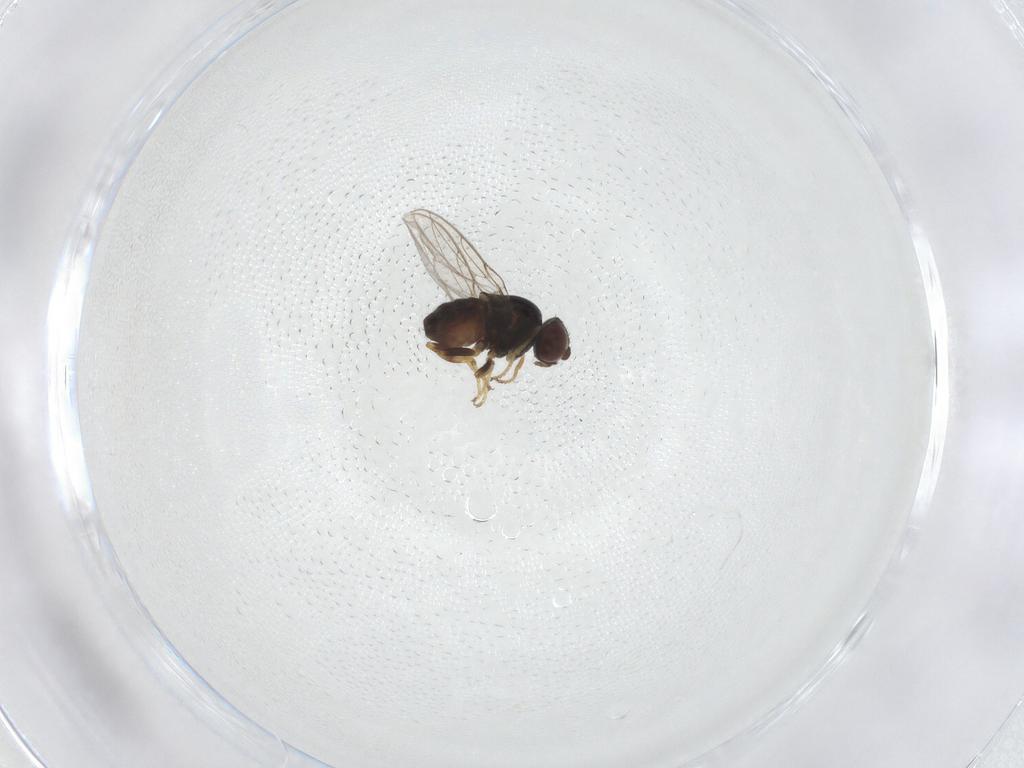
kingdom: Animalia
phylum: Arthropoda
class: Insecta
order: Diptera
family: Chloropidae
